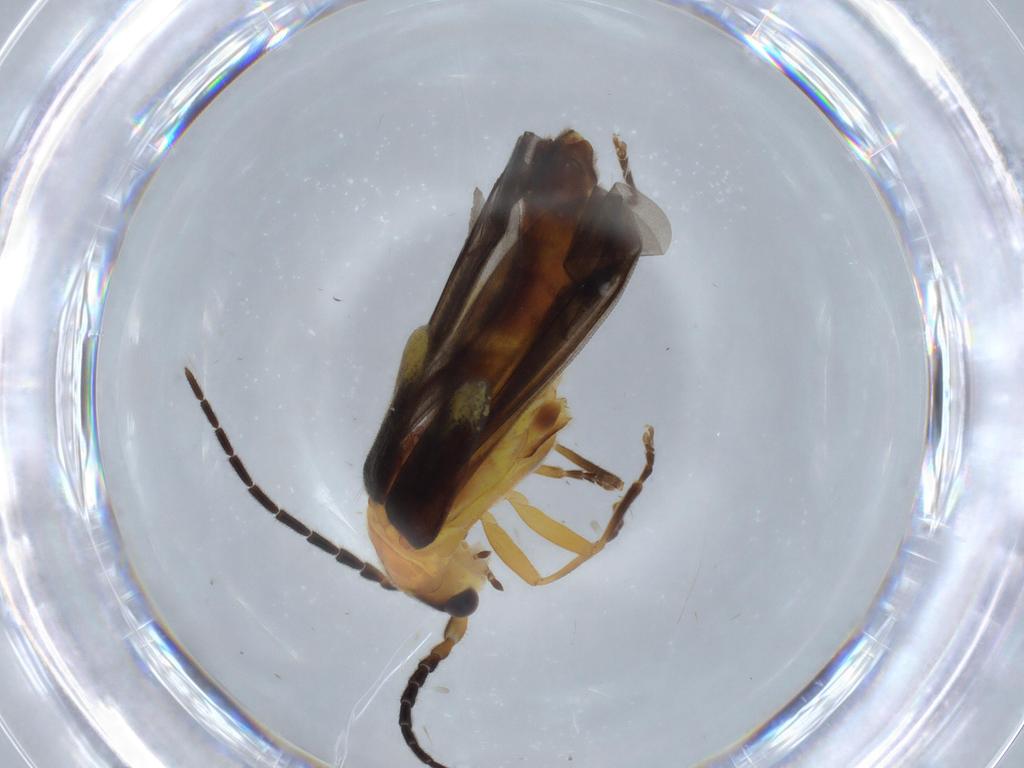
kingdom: Animalia
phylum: Arthropoda
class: Insecta
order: Coleoptera
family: Cantharidae
